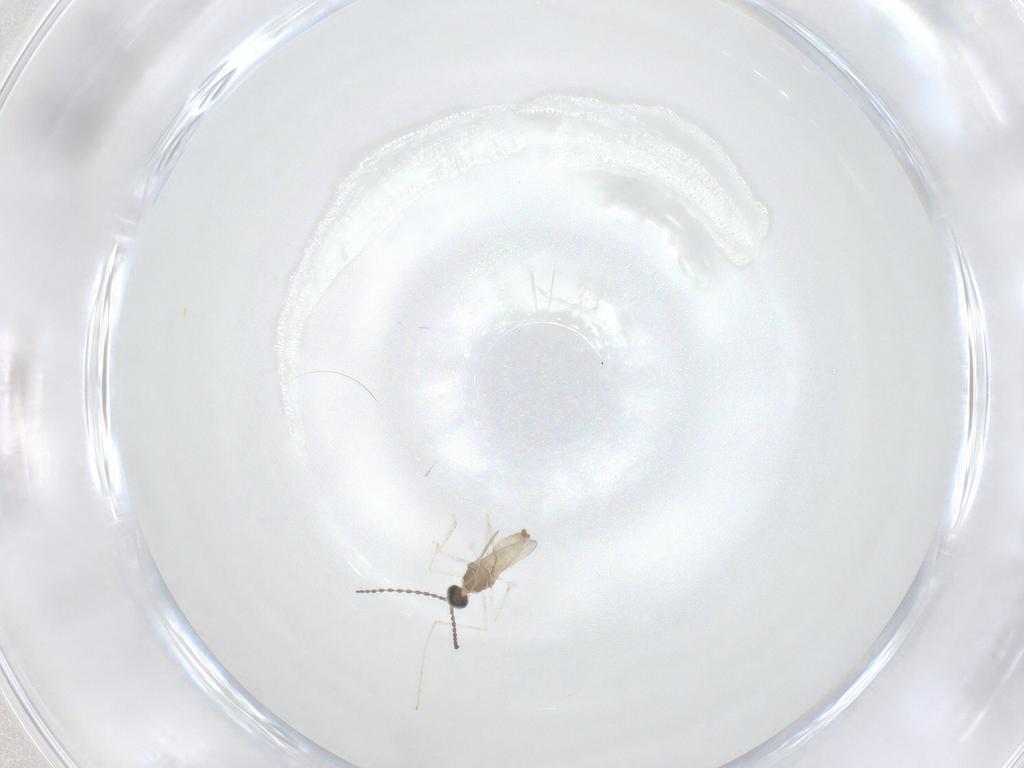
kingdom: Animalia
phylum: Arthropoda
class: Insecta
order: Diptera
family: Cecidomyiidae
